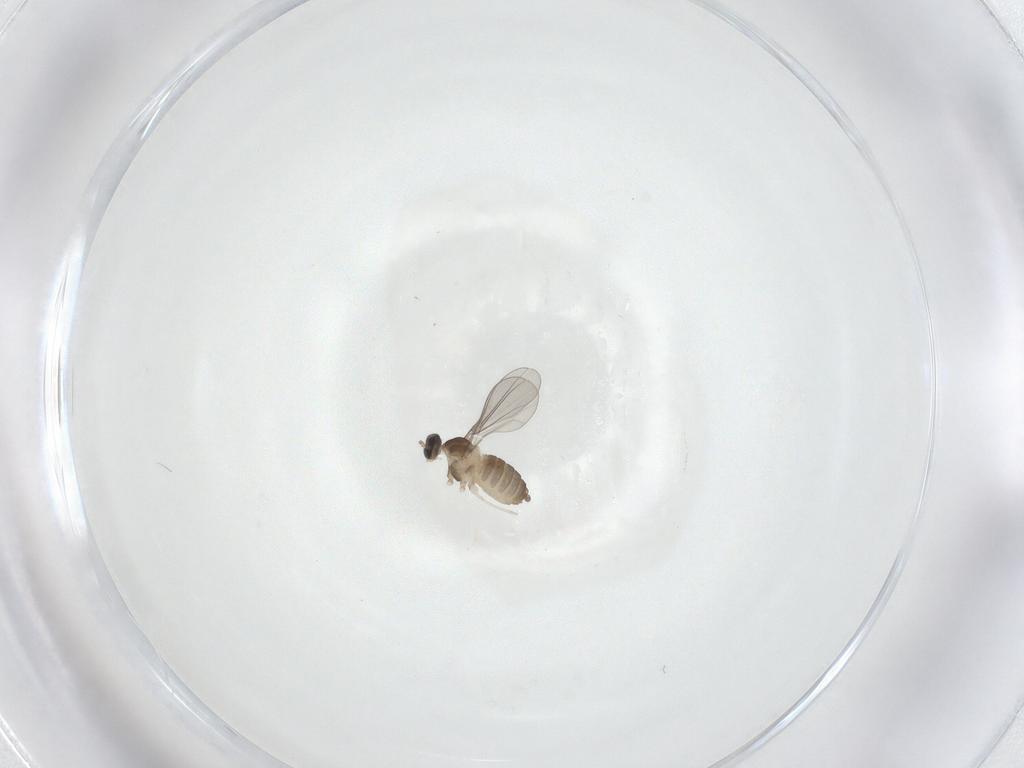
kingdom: Animalia
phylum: Arthropoda
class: Insecta
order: Diptera
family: Cecidomyiidae
